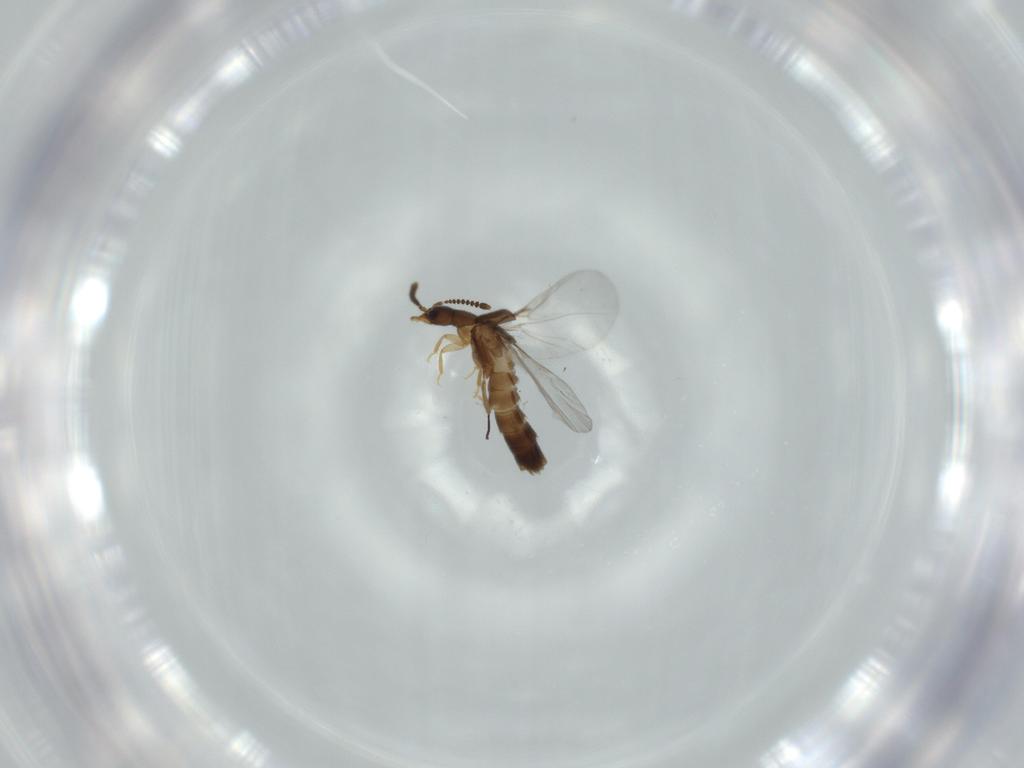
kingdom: Animalia
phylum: Arthropoda
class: Insecta
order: Coleoptera
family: Staphylinidae
